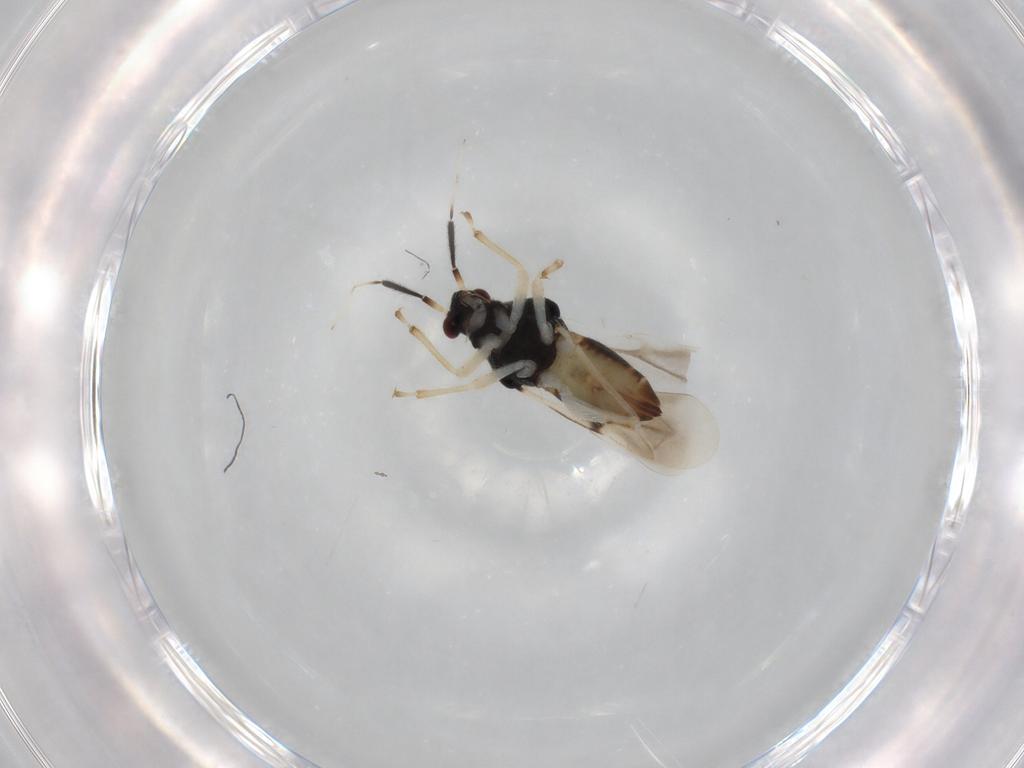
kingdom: Animalia
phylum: Arthropoda
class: Insecta
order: Hemiptera
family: Miridae
